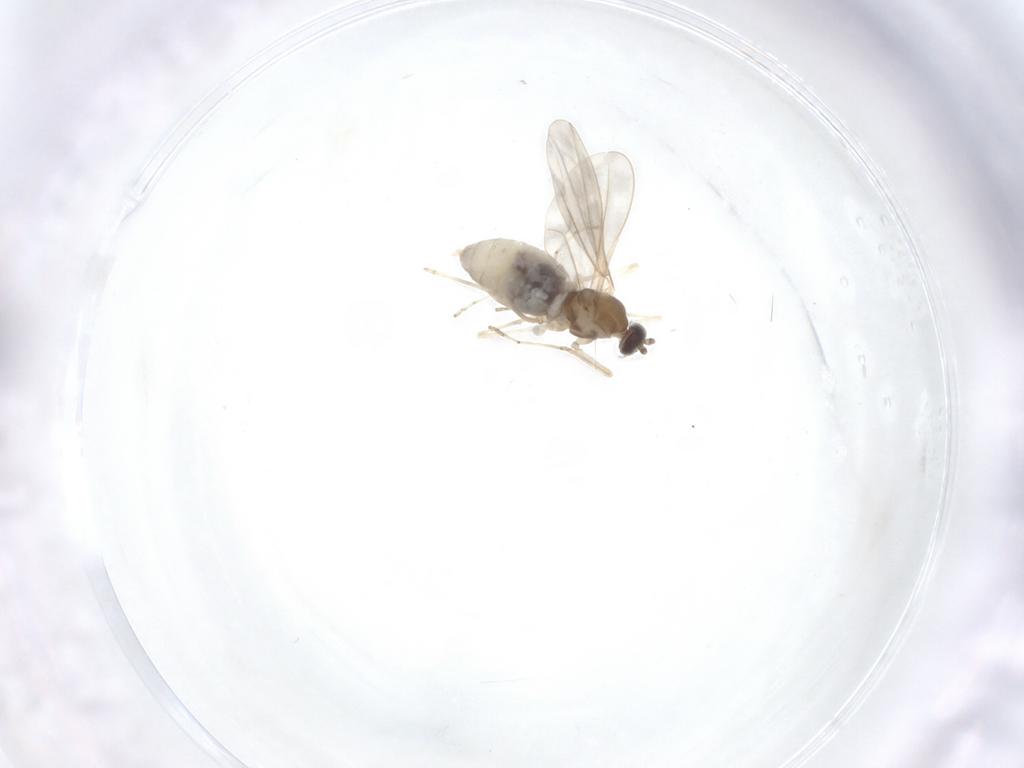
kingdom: Animalia
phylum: Arthropoda
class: Insecta
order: Diptera
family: Cecidomyiidae
